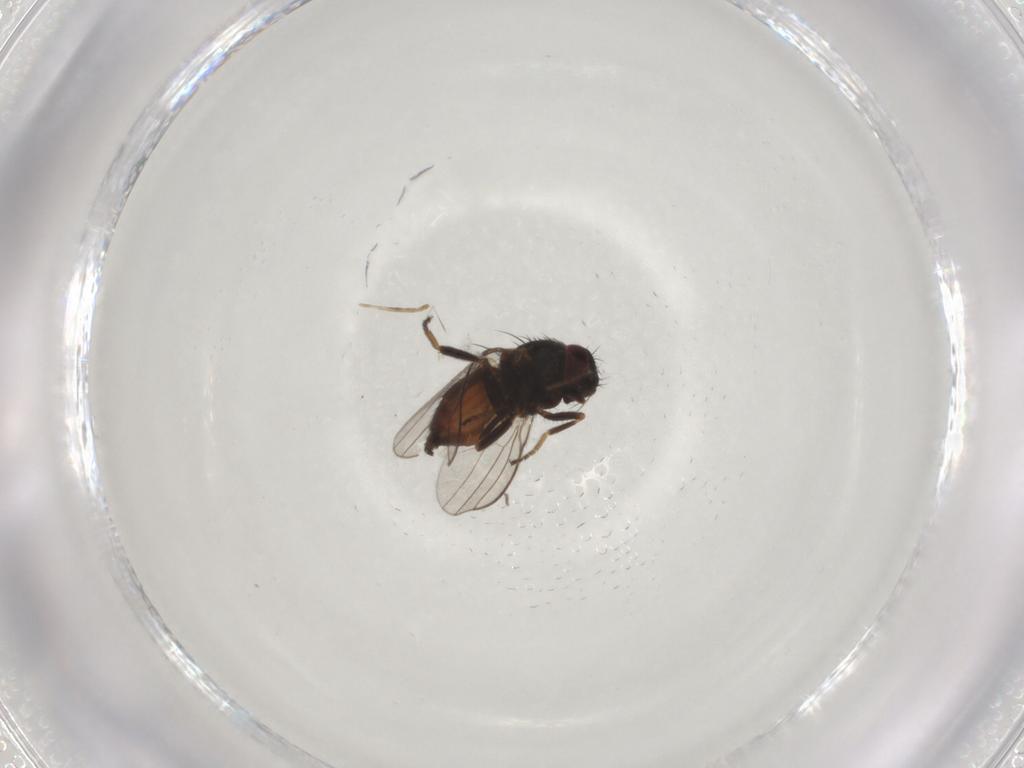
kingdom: Animalia
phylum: Arthropoda
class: Insecta
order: Diptera
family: Milichiidae
